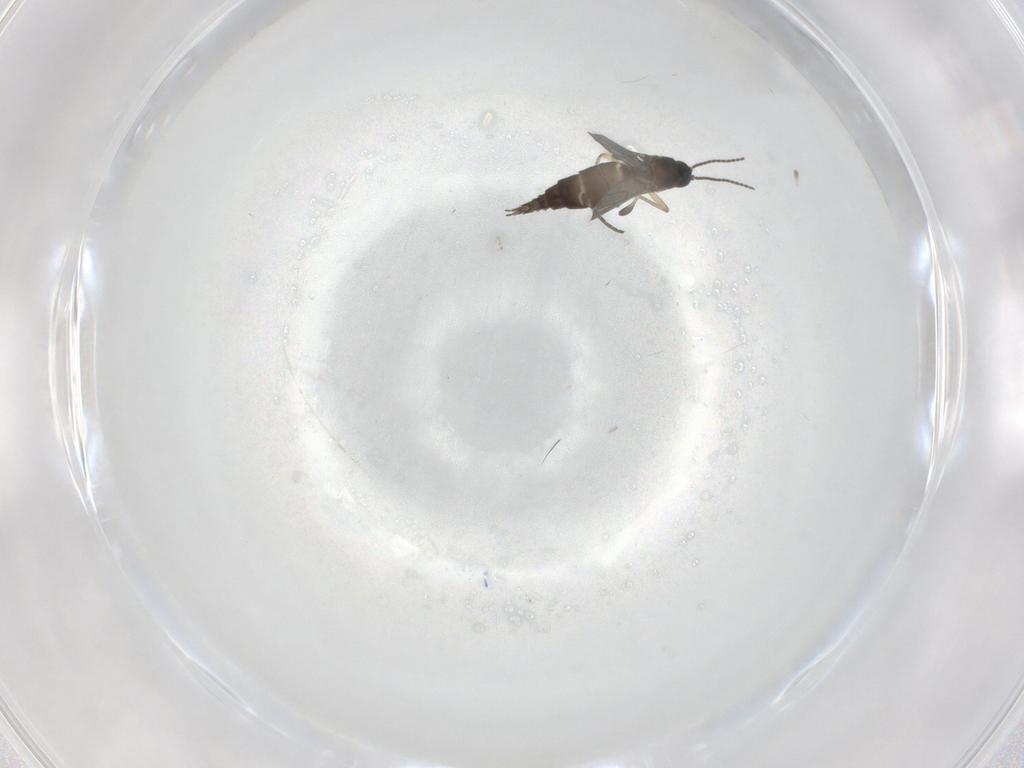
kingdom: Animalia
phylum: Arthropoda
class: Insecta
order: Diptera
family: Sciaridae
